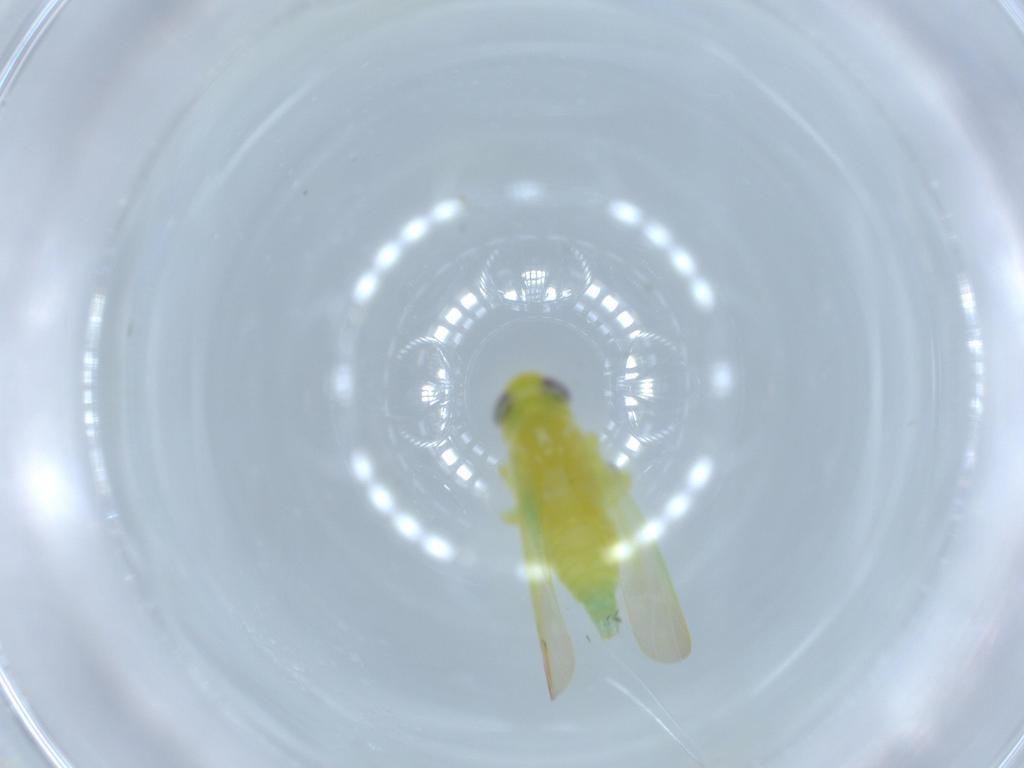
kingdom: Animalia
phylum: Arthropoda
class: Insecta
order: Hemiptera
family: Cicadellidae
